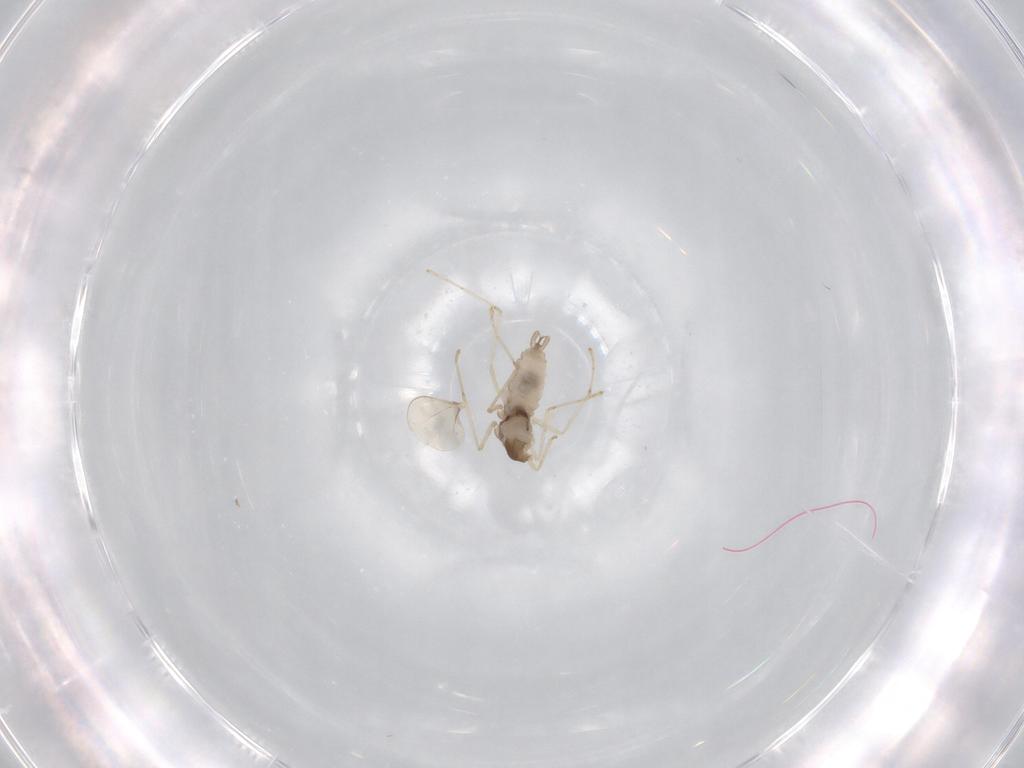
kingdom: Animalia
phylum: Arthropoda
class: Insecta
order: Diptera
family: Cecidomyiidae
